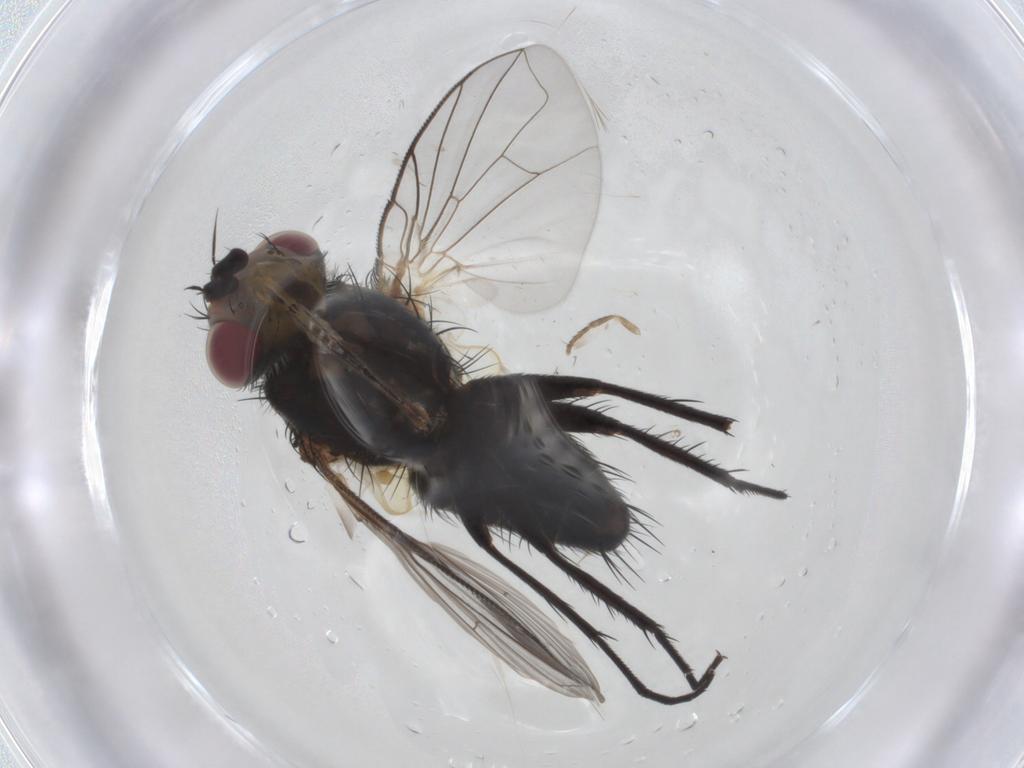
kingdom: Animalia
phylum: Arthropoda
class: Insecta
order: Diptera
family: Tachinidae
